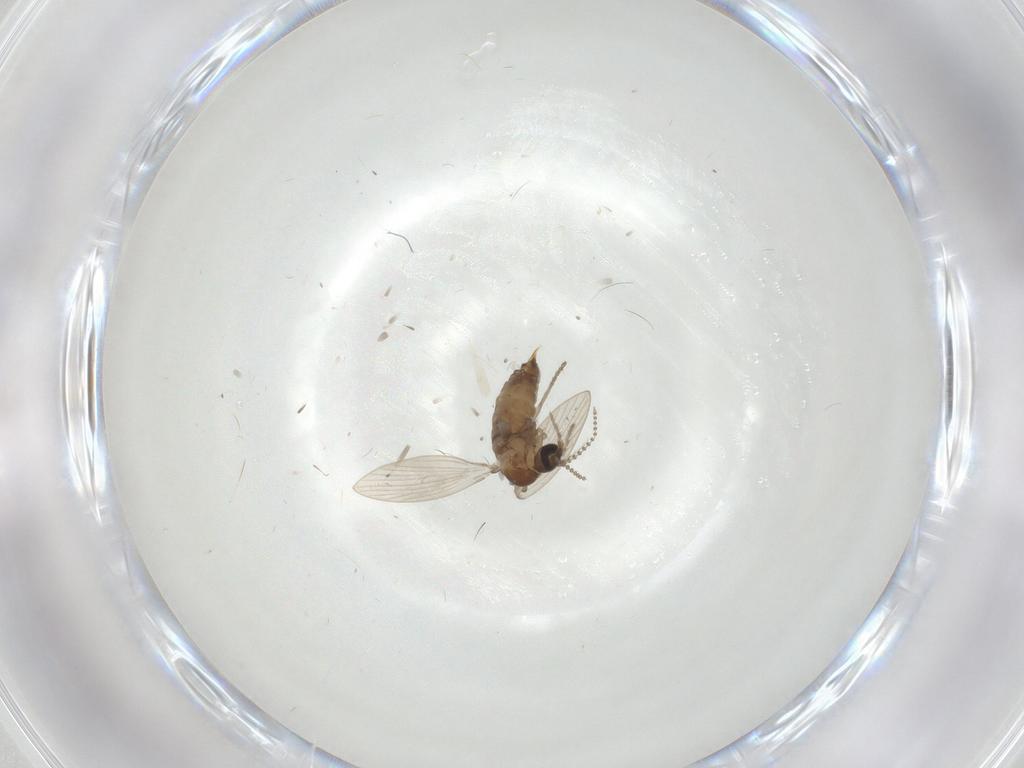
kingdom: Animalia
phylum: Arthropoda
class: Insecta
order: Diptera
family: Psychodidae
